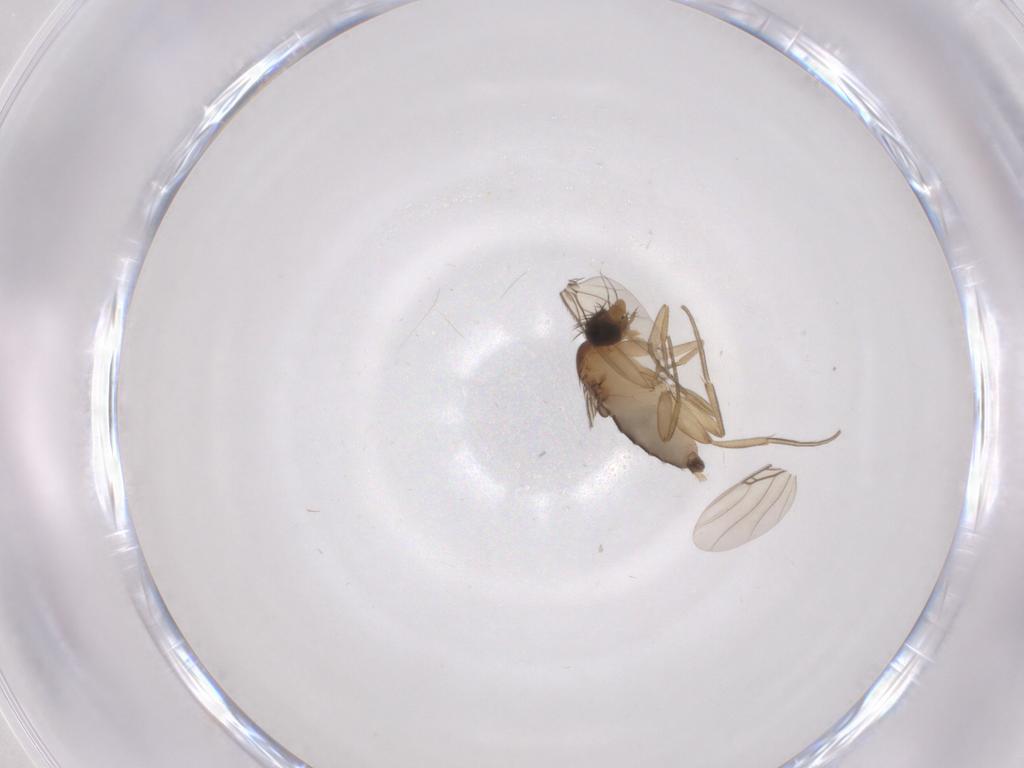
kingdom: Animalia
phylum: Arthropoda
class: Insecta
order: Diptera
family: Phoridae
